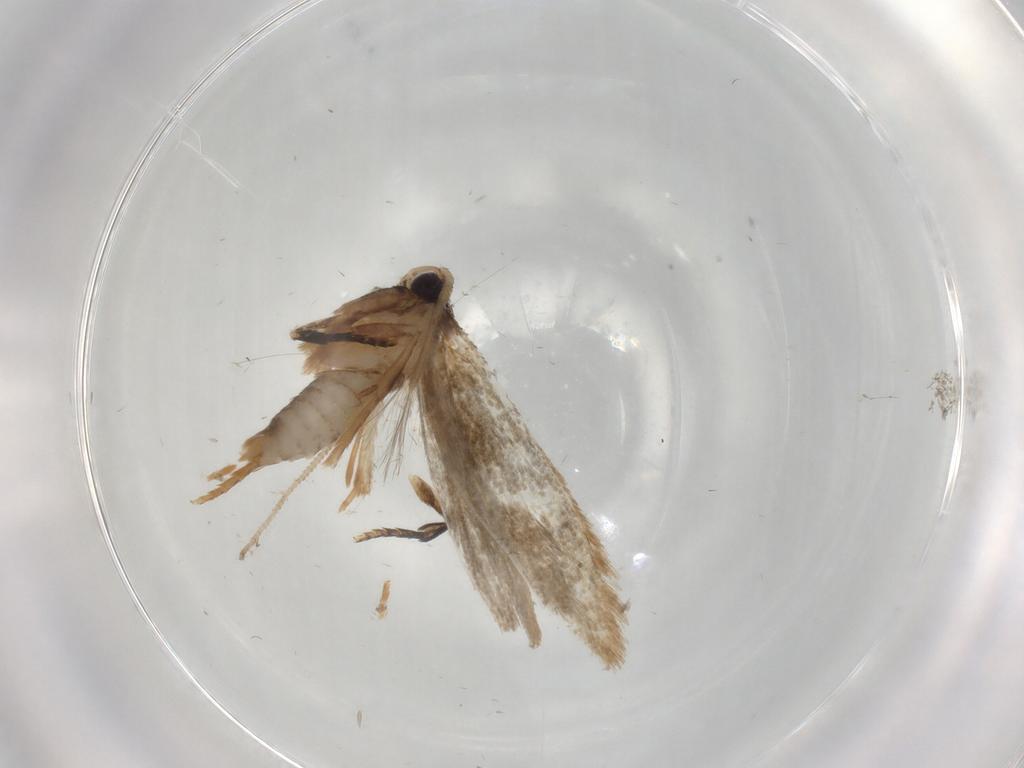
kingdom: Animalia
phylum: Arthropoda
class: Insecta
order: Lepidoptera
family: Cosmopterigidae
